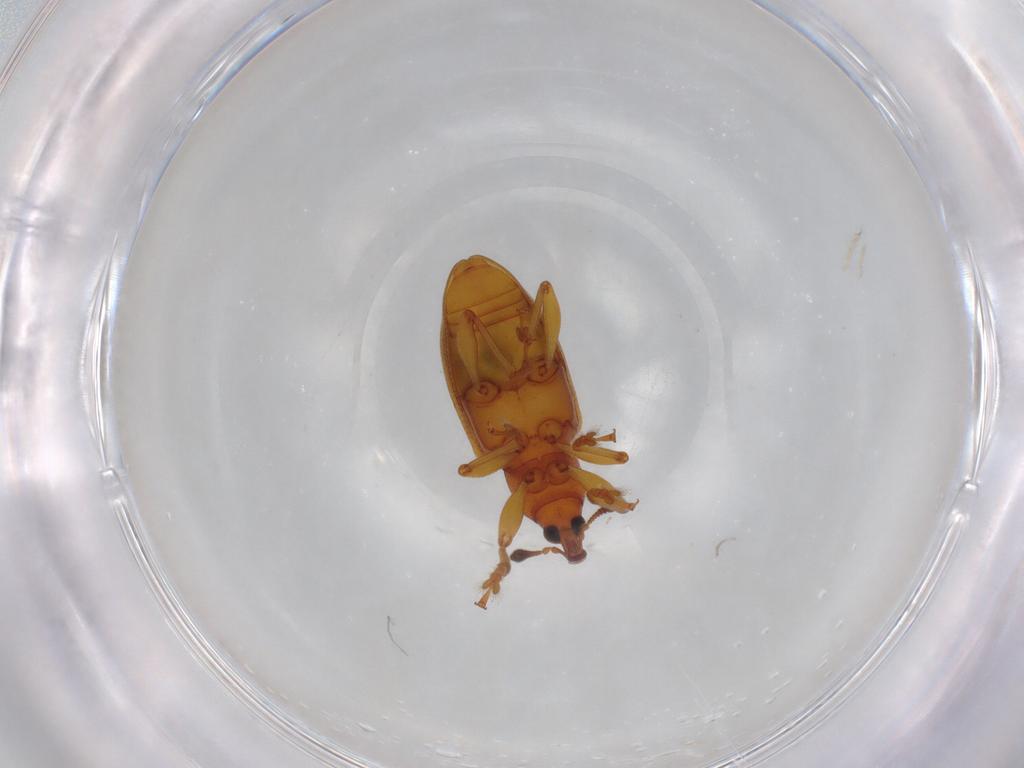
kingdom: Animalia
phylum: Arthropoda
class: Insecta
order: Coleoptera
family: Curculionidae
